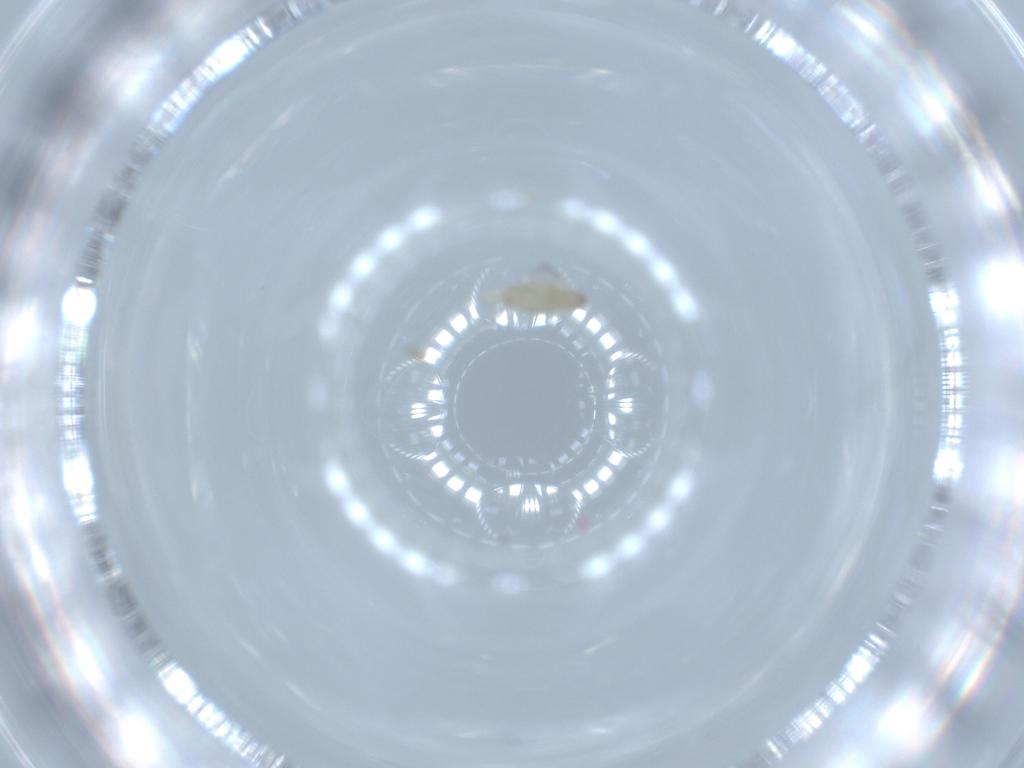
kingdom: Animalia
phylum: Arthropoda
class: Insecta
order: Diptera
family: Cecidomyiidae
